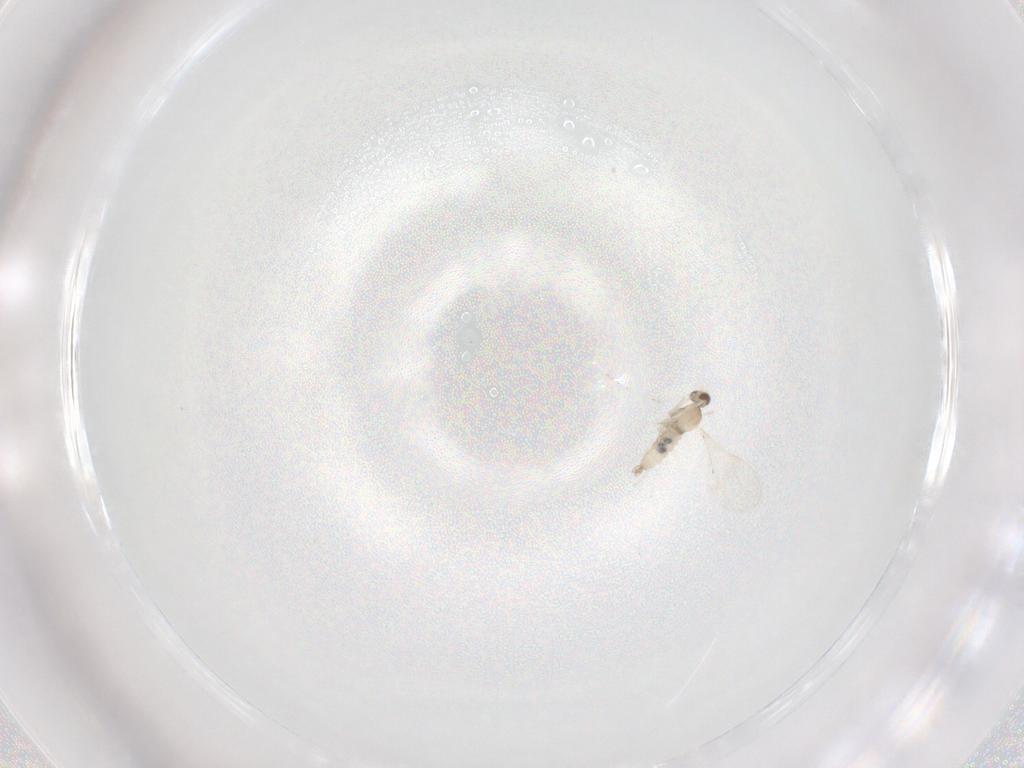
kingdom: Animalia
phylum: Arthropoda
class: Insecta
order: Diptera
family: Cecidomyiidae
